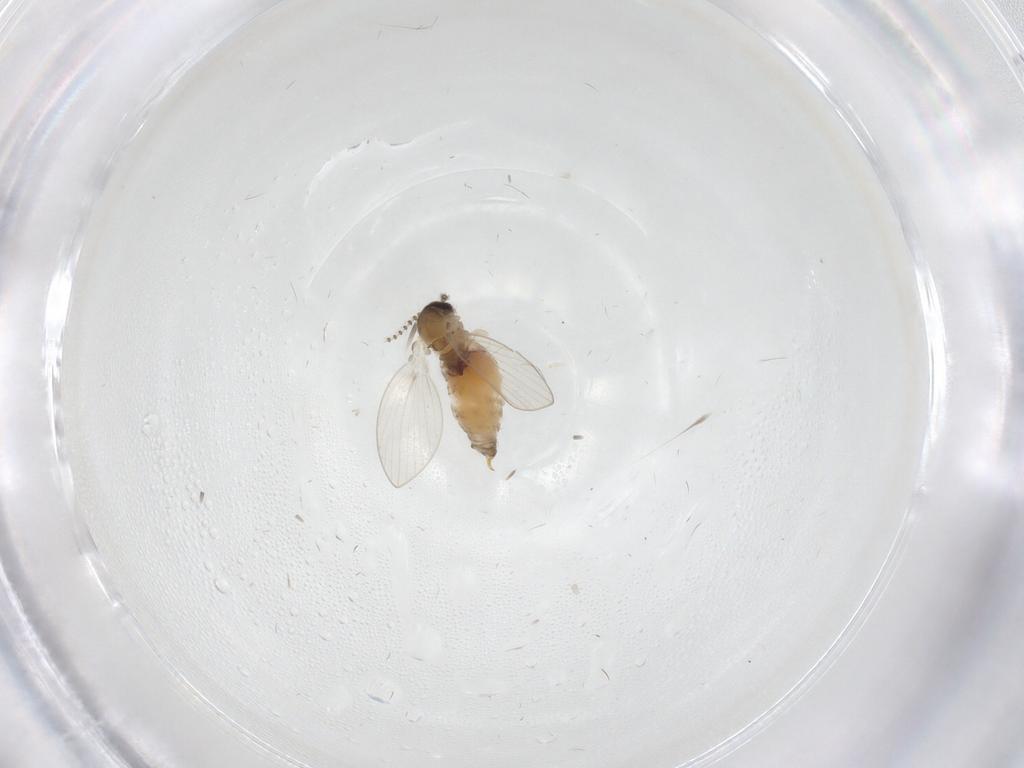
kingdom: Animalia
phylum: Arthropoda
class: Insecta
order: Diptera
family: Psychodidae
